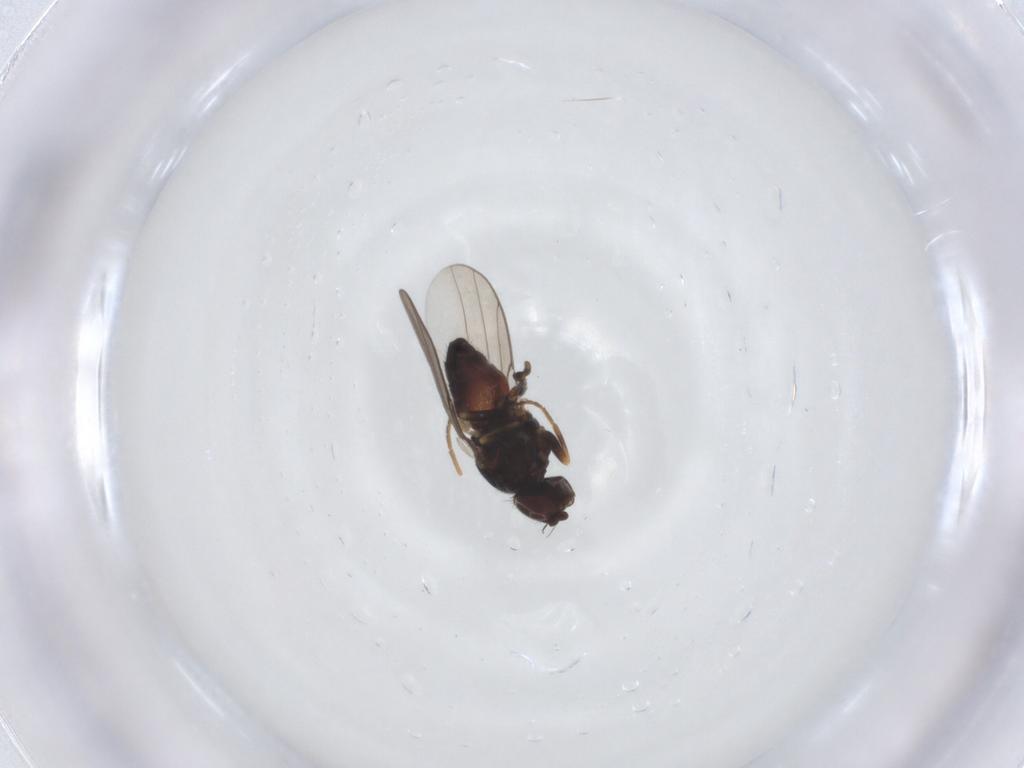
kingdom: Animalia
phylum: Arthropoda
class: Insecta
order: Diptera
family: Chloropidae
